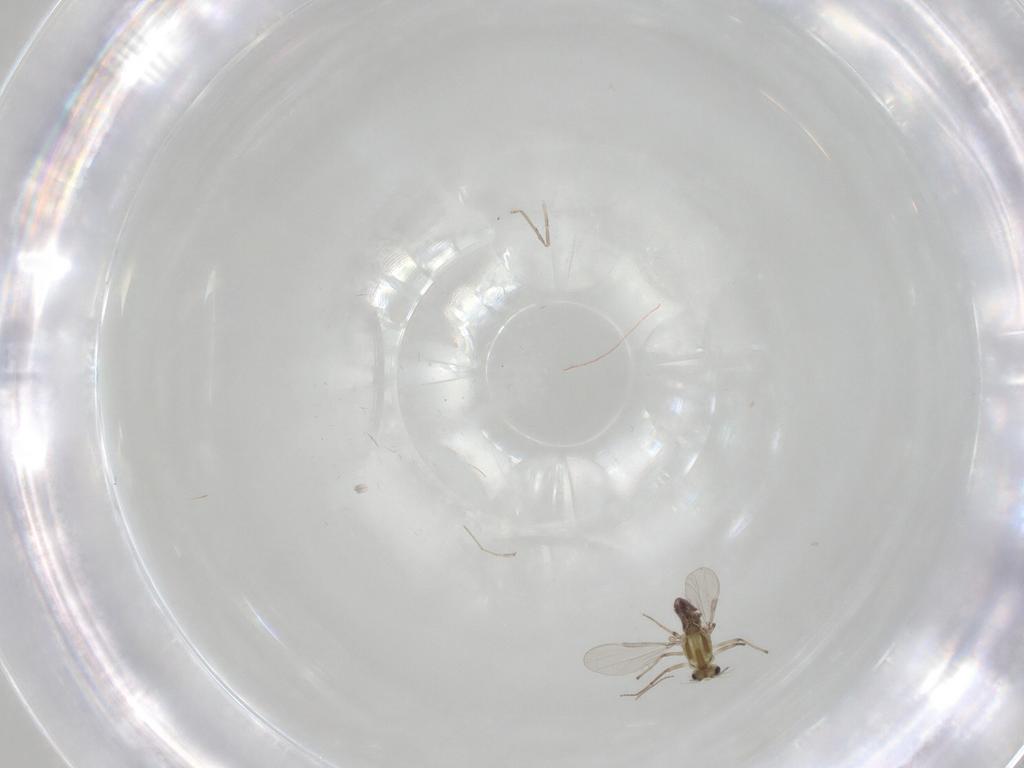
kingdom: Animalia
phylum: Arthropoda
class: Insecta
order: Diptera
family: Chironomidae
